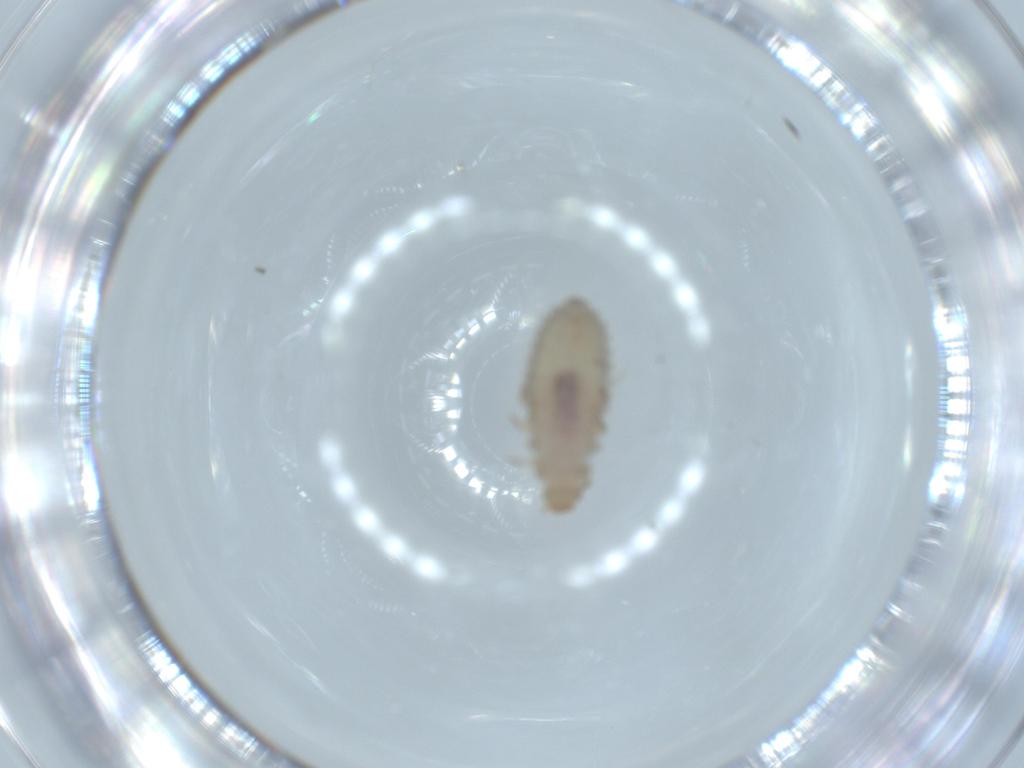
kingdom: Animalia
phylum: Arthropoda
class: Insecta
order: Coleoptera
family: Coccinellidae
